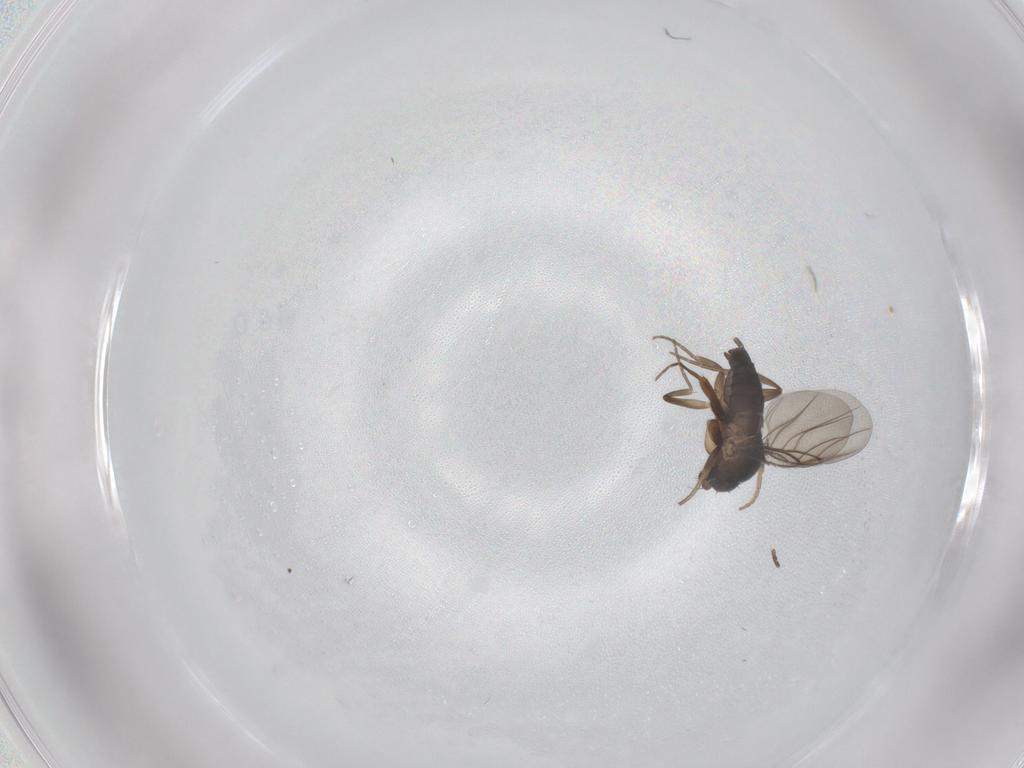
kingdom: Animalia
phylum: Arthropoda
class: Insecta
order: Diptera
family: Phoridae
